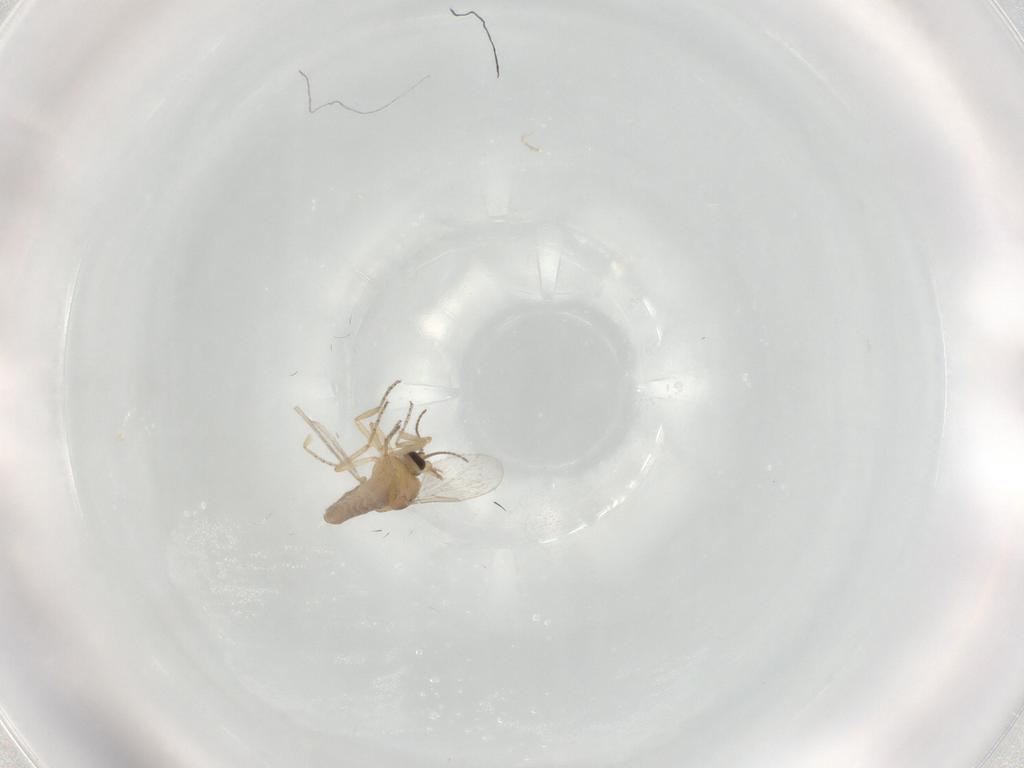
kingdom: Animalia
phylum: Arthropoda
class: Insecta
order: Diptera
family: Ceratopogonidae
